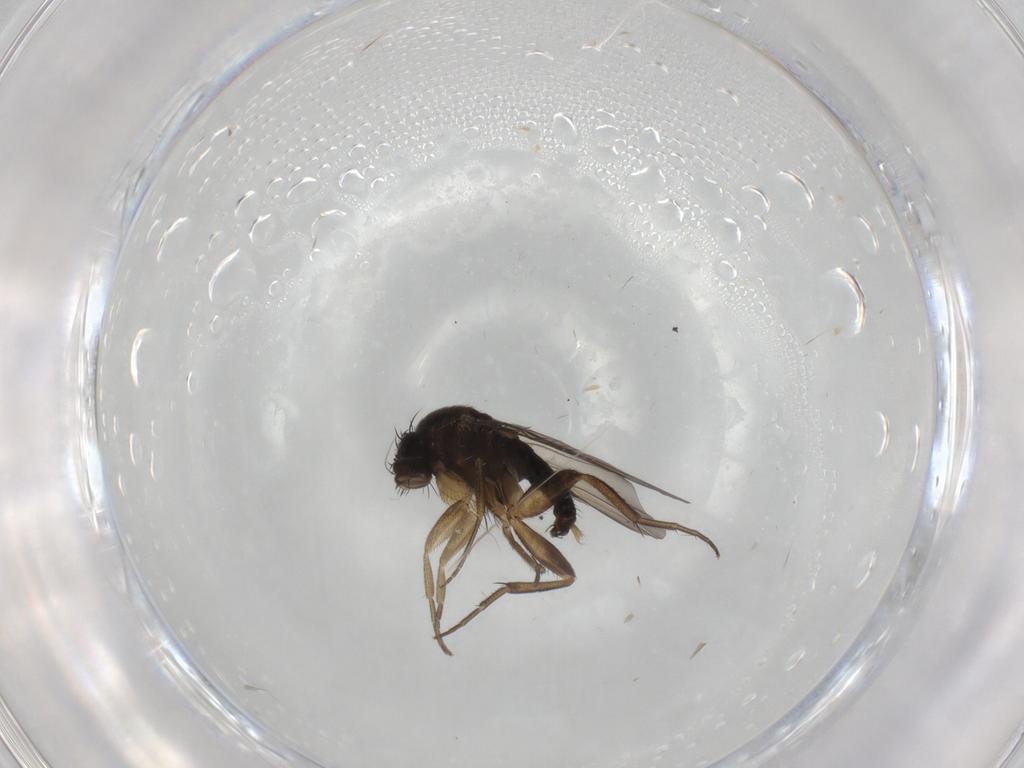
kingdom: Animalia
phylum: Arthropoda
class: Insecta
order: Diptera
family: Phoridae
